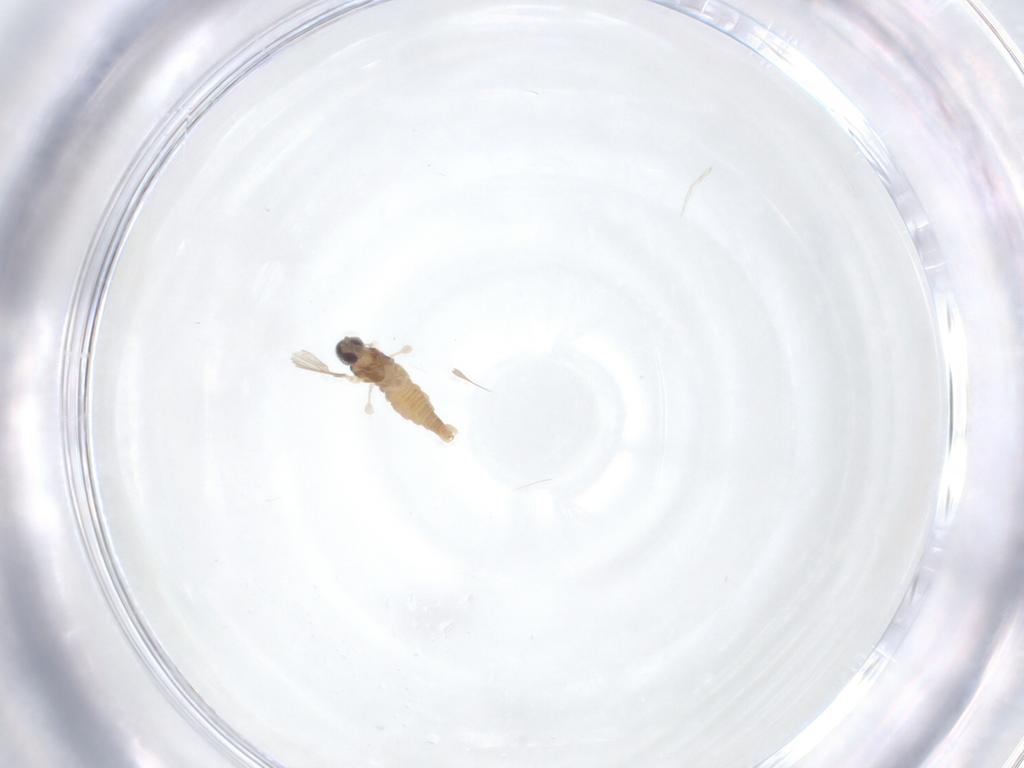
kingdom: Animalia
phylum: Arthropoda
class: Insecta
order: Diptera
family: Cecidomyiidae
